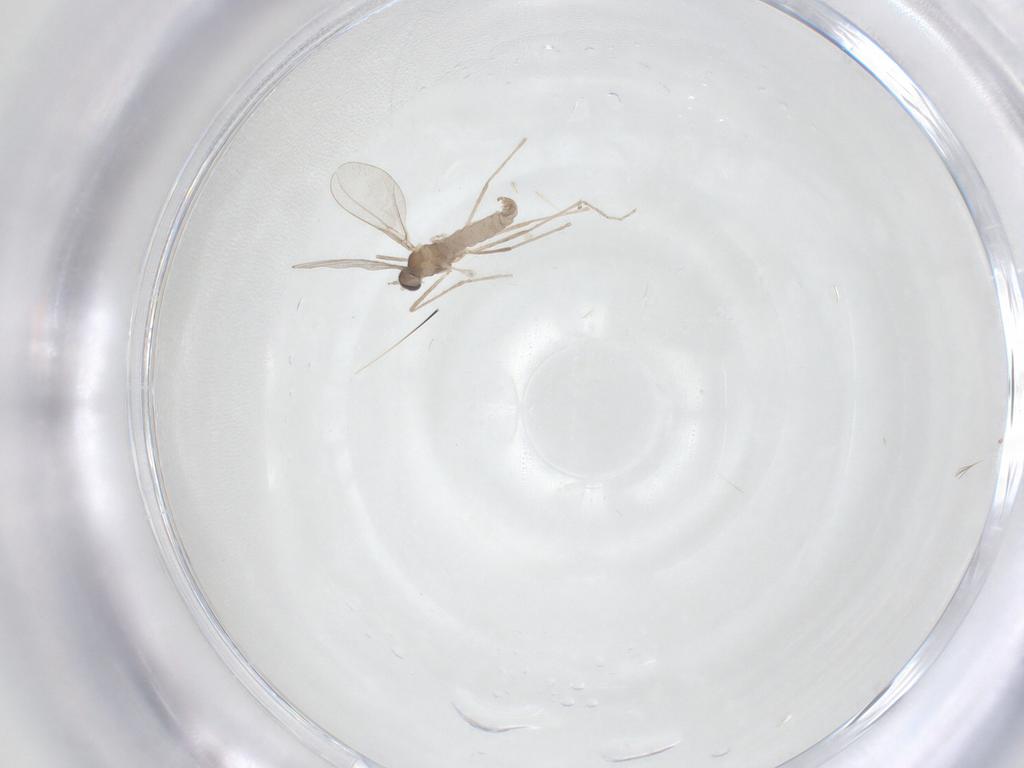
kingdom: Animalia
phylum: Arthropoda
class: Insecta
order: Diptera
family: Cecidomyiidae
